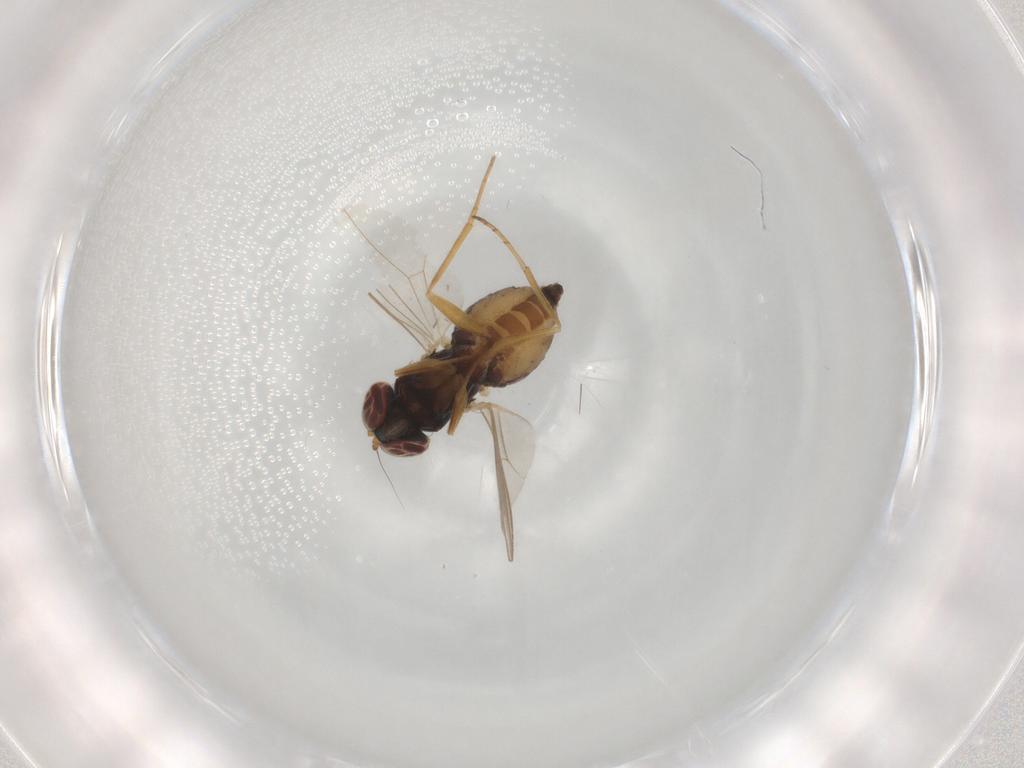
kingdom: Animalia
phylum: Arthropoda
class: Insecta
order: Diptera
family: Dolichopodidae
